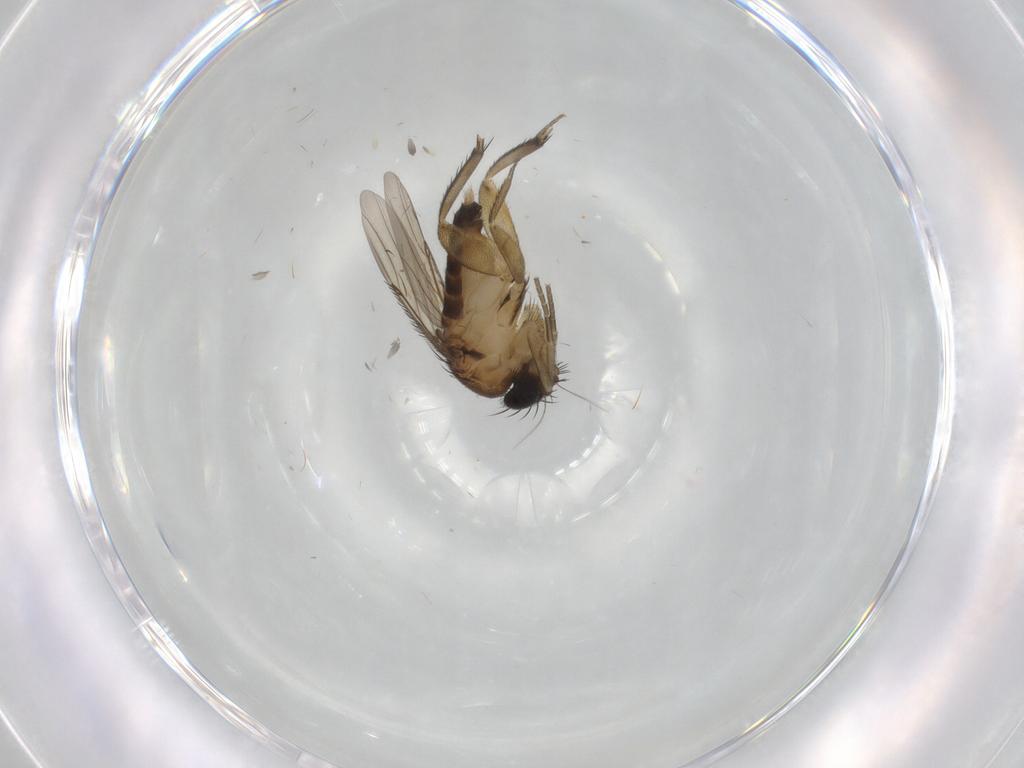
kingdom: Animalia
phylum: Arthropoda
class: Insecta
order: Diptera
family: Phoridae
